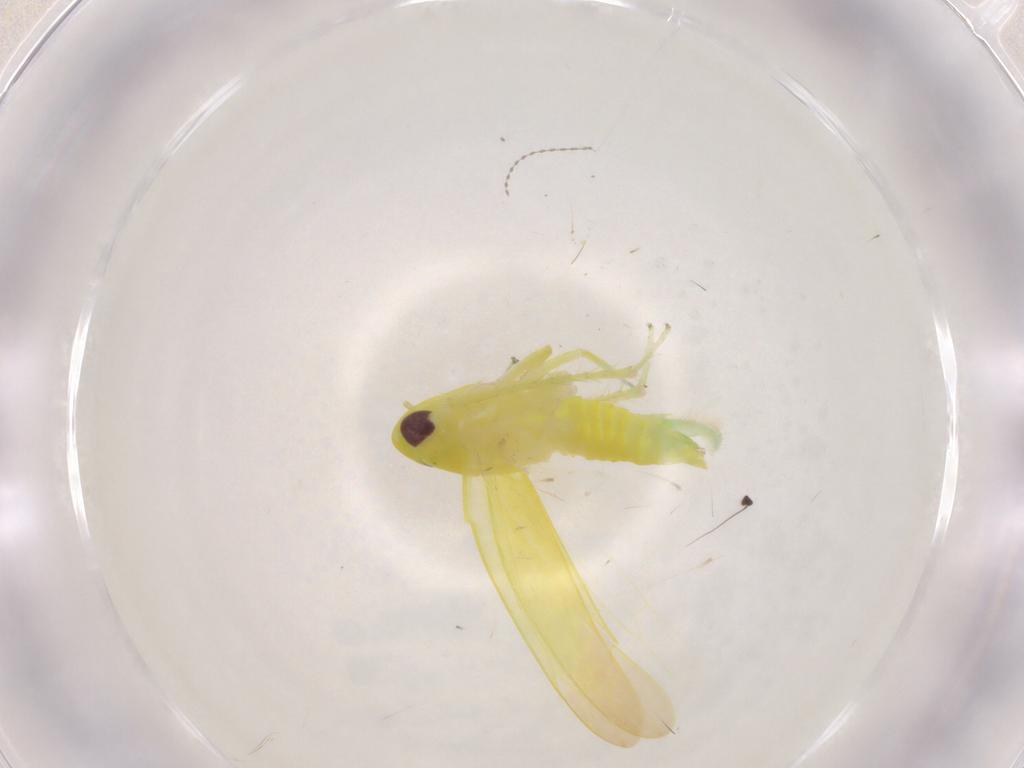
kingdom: Animalia
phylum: Arthropoda
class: Insecta
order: Hemiptera
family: Cicadellidae
